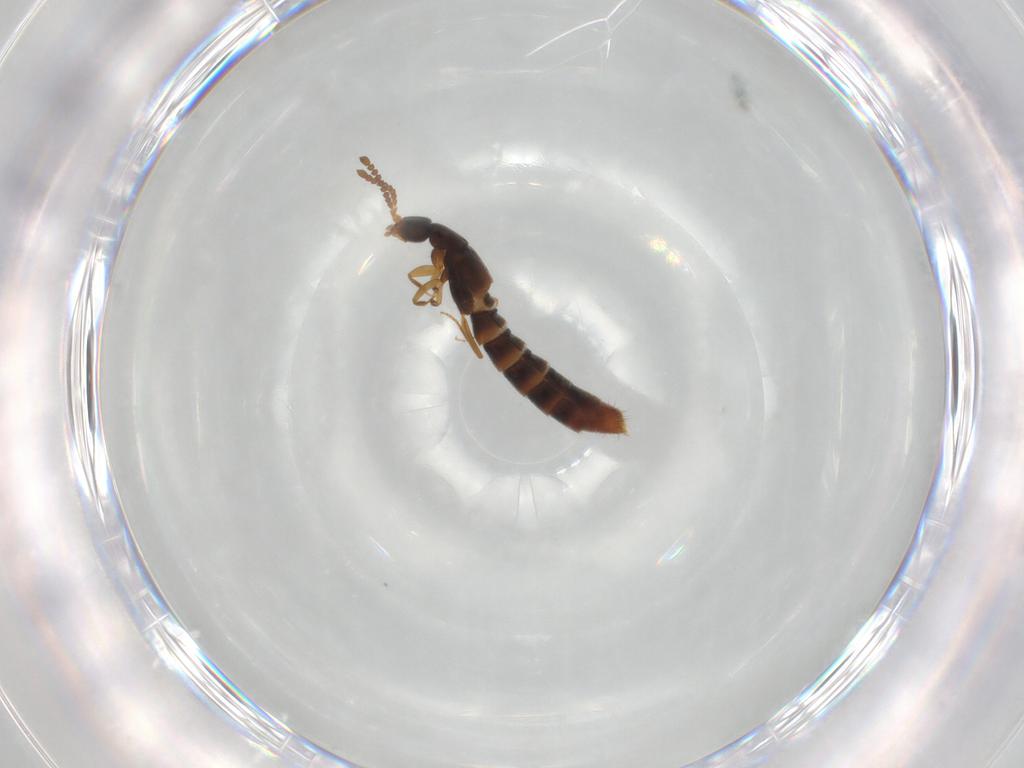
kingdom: Animalia
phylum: Arthropoda
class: Insecta
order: Coleoptera
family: Staphylinidae
